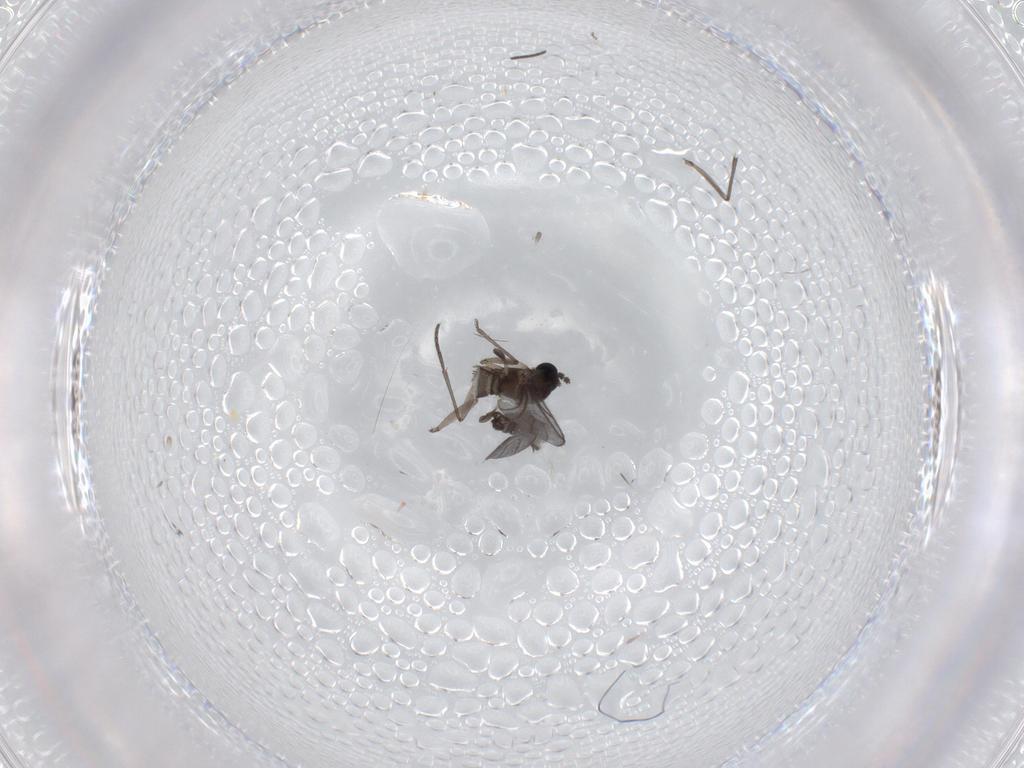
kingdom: Animalia
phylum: Arthropoda
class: Insecta
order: Diptera
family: Sciaridae
